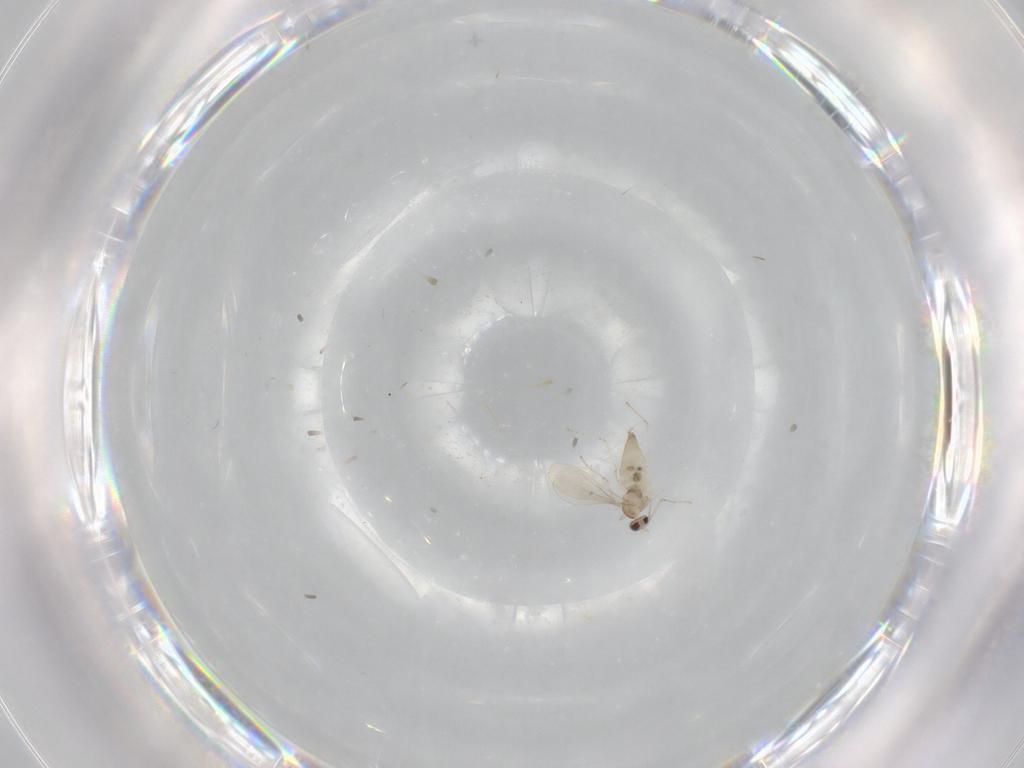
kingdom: Animalia
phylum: Arthropoda
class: Insecta
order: Diptera
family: Cecidomyiidae
